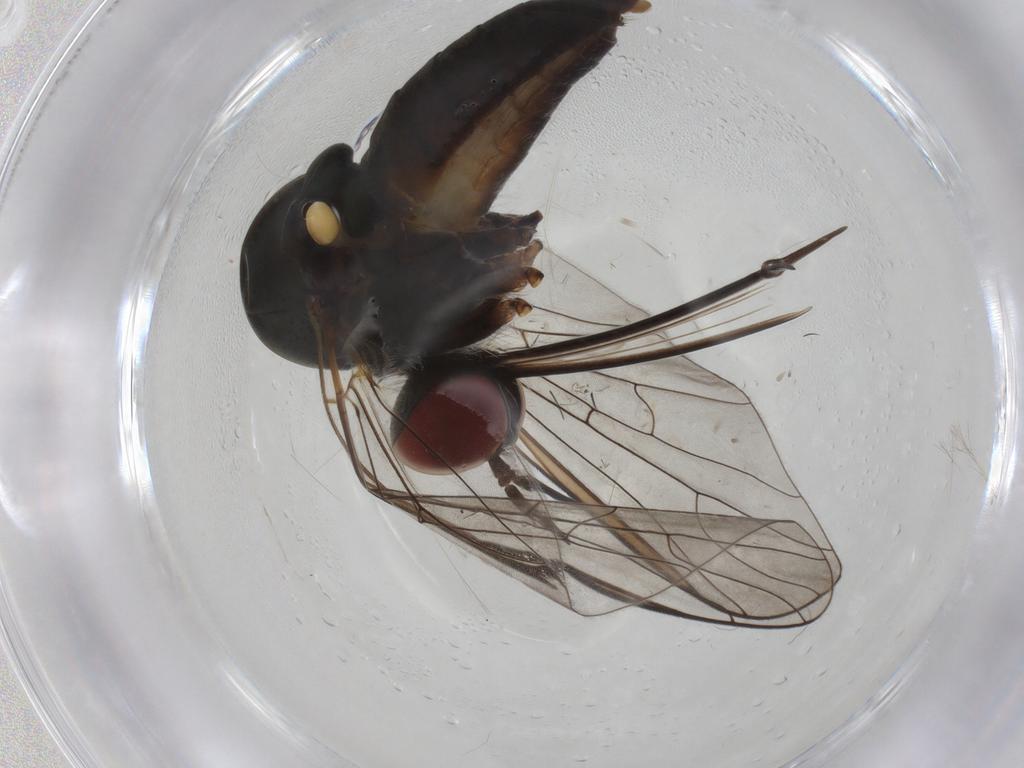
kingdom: Animalia
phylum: Arthropoda
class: Insecta
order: Diptera
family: Bombyliidae
